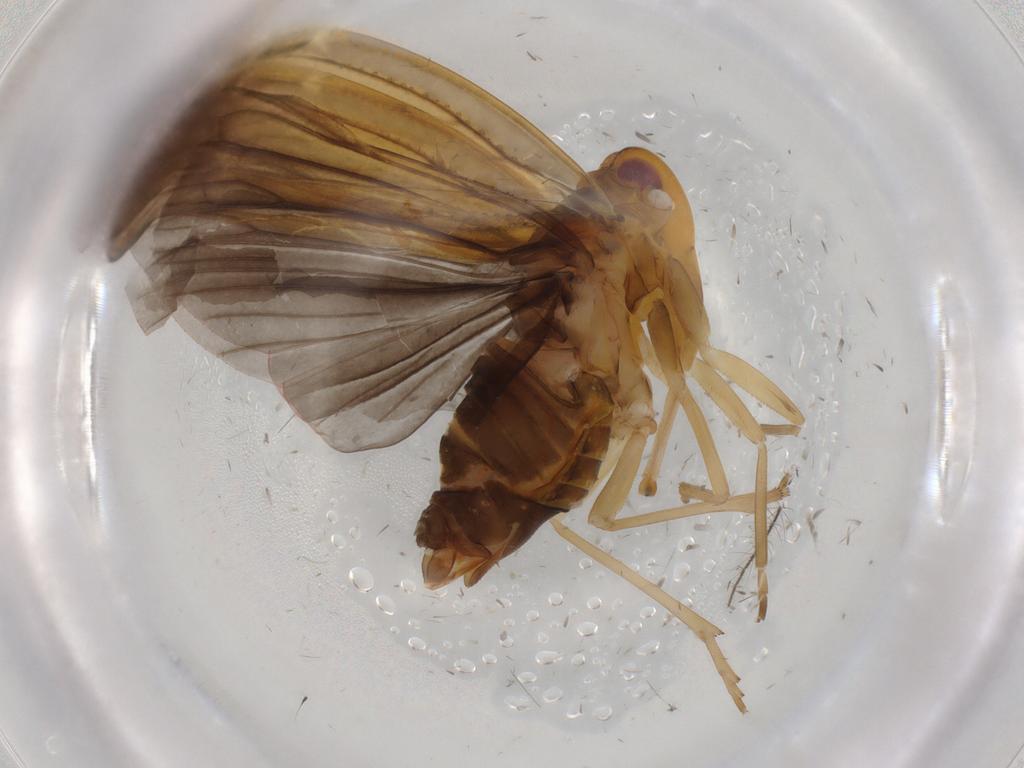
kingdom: Animalia
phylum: Arthropoda
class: Insecta
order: Hemiptera
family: Derbidae
